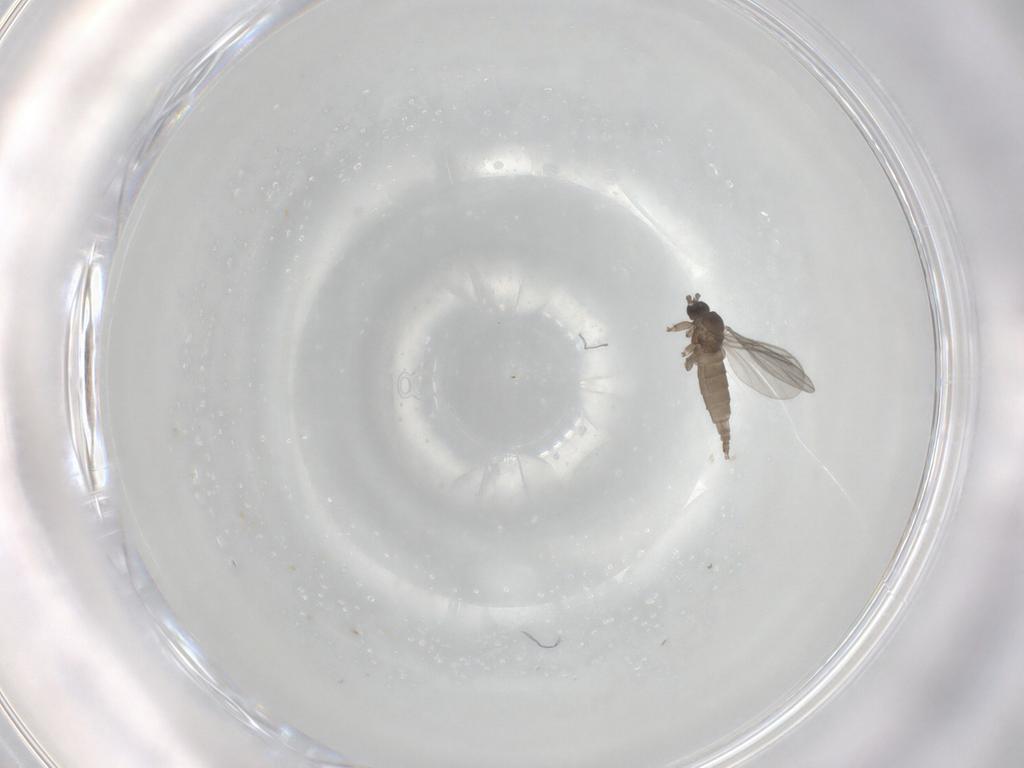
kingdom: Animalia
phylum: Arthropoda
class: Insecta
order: Diptera
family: Sciaridae
